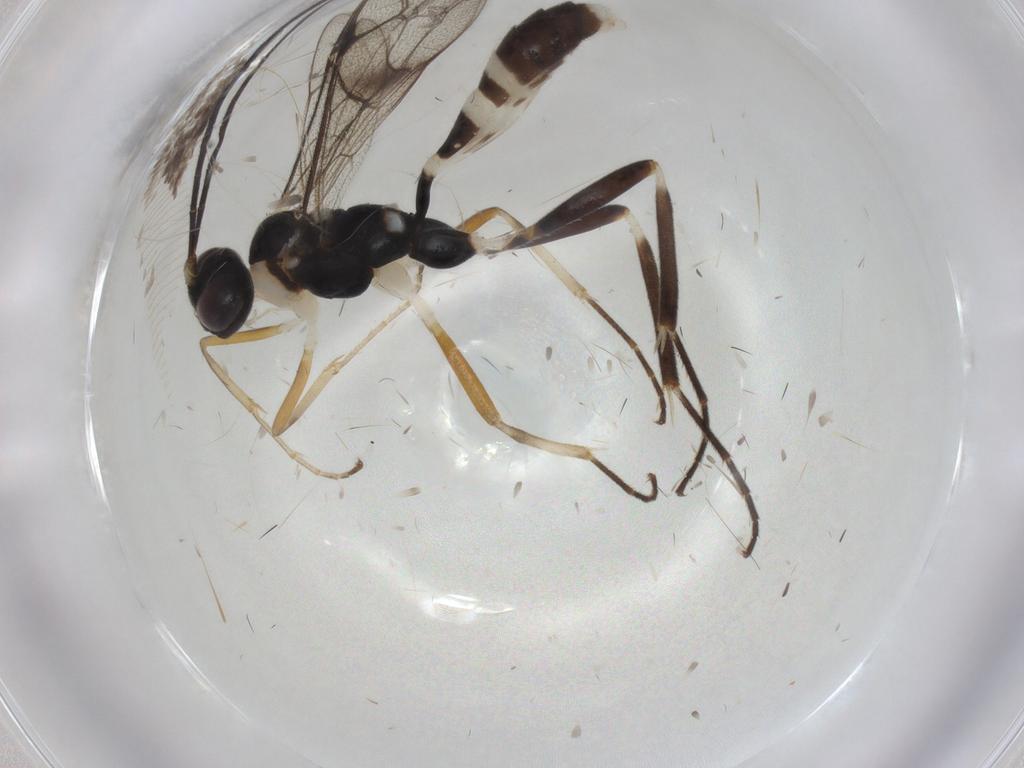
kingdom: Animalia
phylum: Arthropoda
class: Insecta
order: Hymenoptera
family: Ichneumonidae
